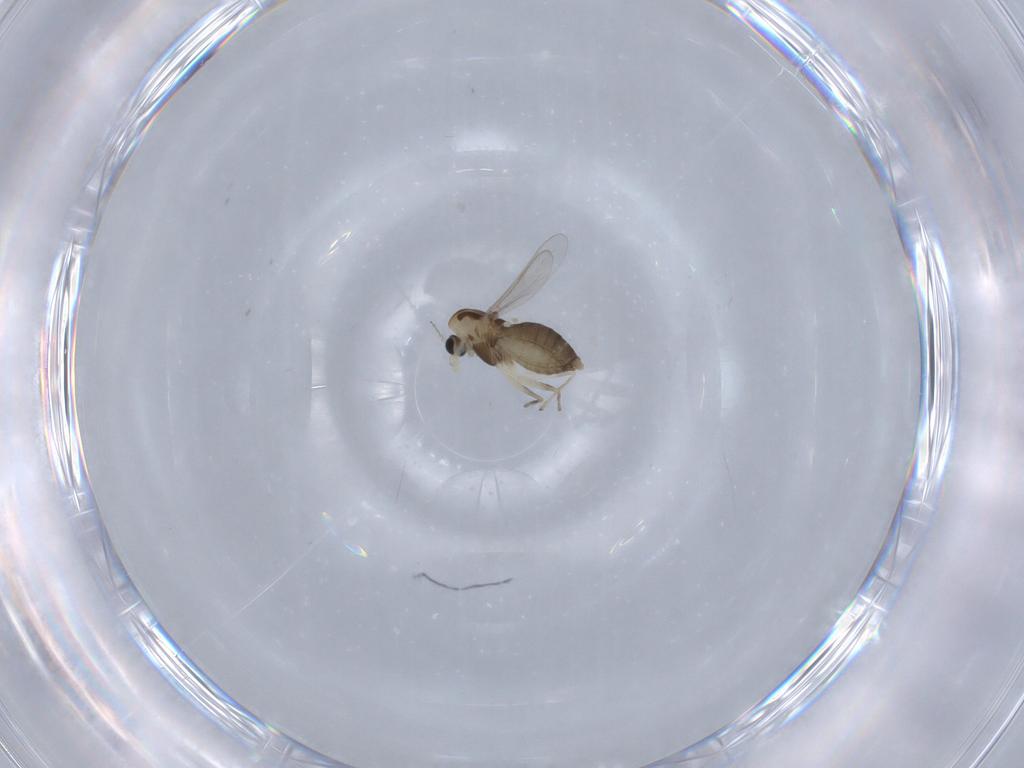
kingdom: Animalia
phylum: Arthropoda
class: Insecta
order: Diptera
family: Chironomidae
